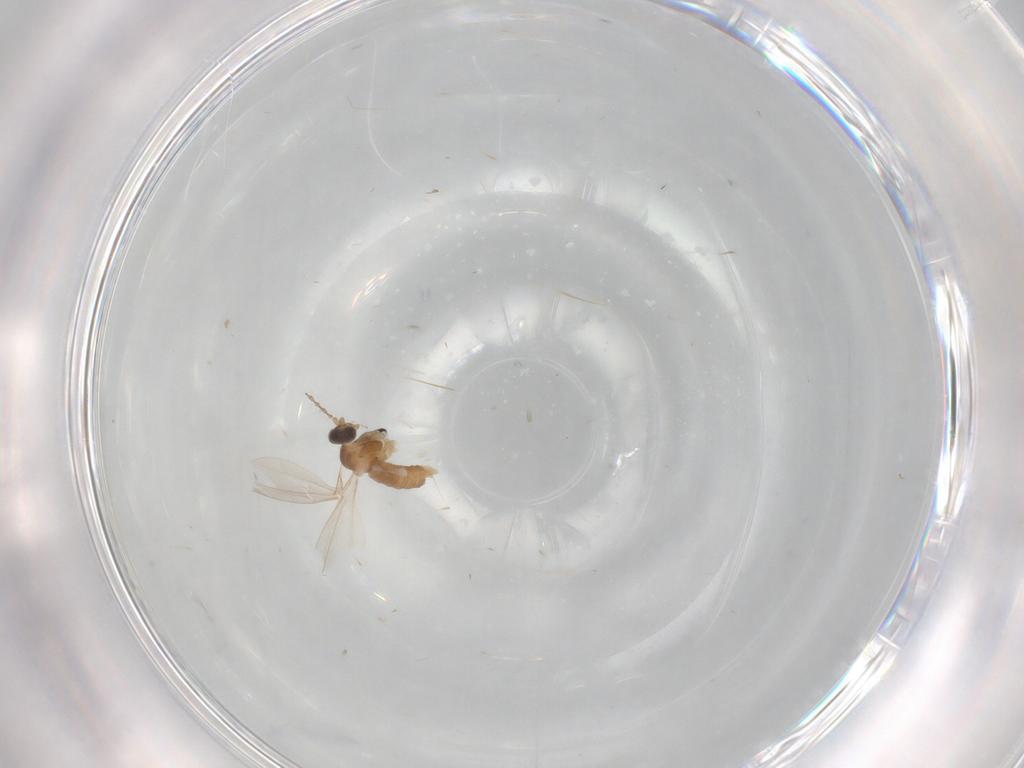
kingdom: Animalia
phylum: Arthropoda
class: Insecta
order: Diptera
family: Cecidomyiidae
